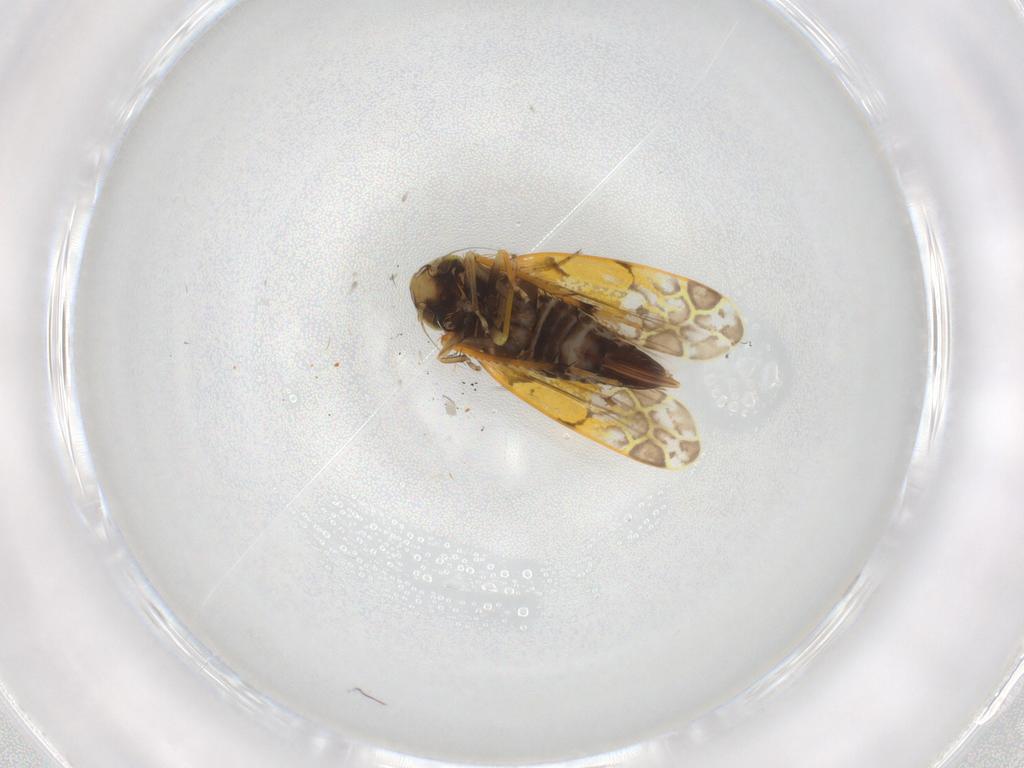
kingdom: Animalia
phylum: Arthropoda
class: Insecta
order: Hemiptera
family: Cicadellidae
